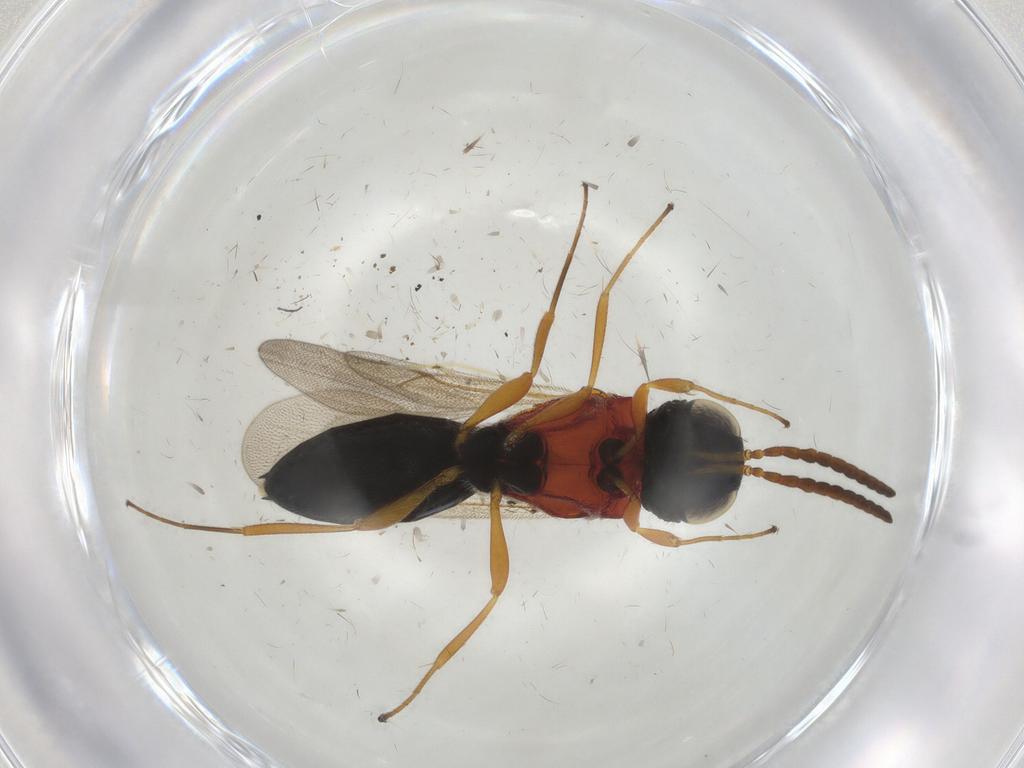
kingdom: Animalia
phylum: Arthropoda
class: Insecta
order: Hymenoptera
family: Scelionidae
